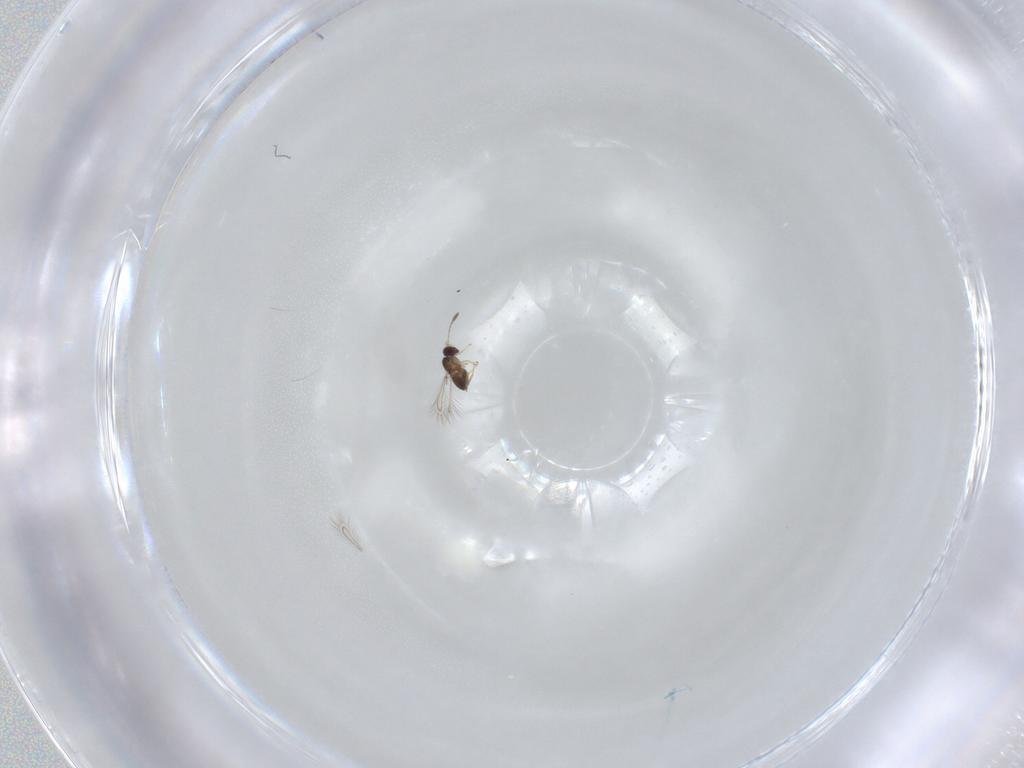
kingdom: Animalia
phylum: Arthropoda
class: Insecta
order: Hymenoptera
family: Mymaridae
